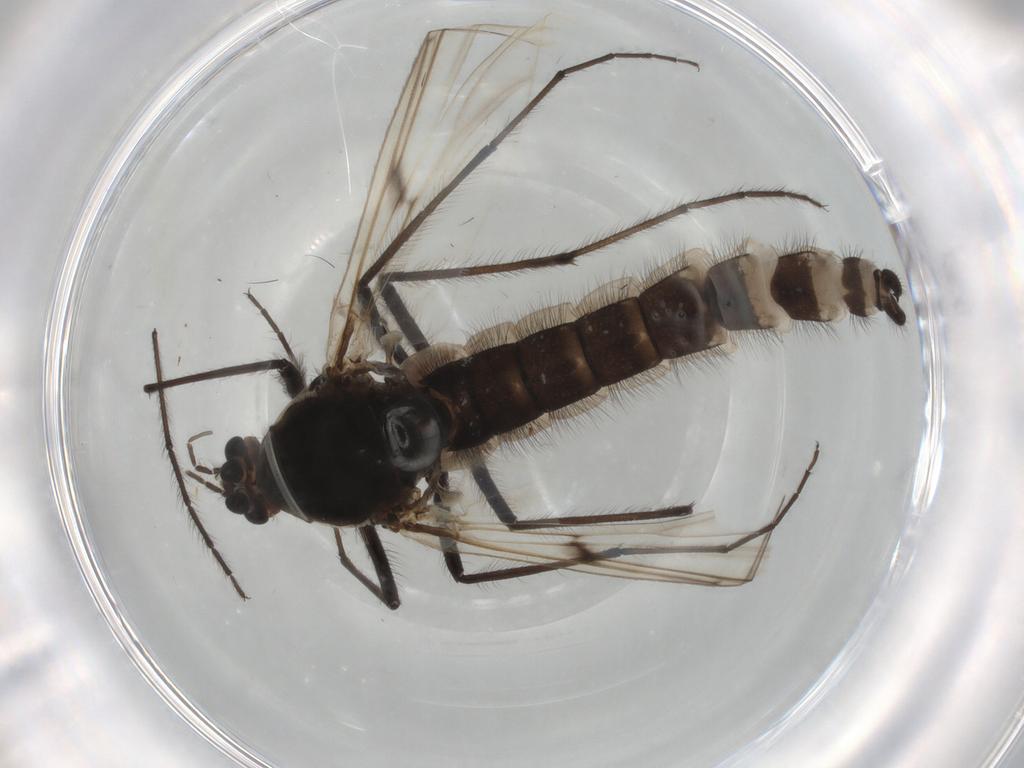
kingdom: Animalia
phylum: Arthropoda
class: Insecta
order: Diptera
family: Chironomidae
